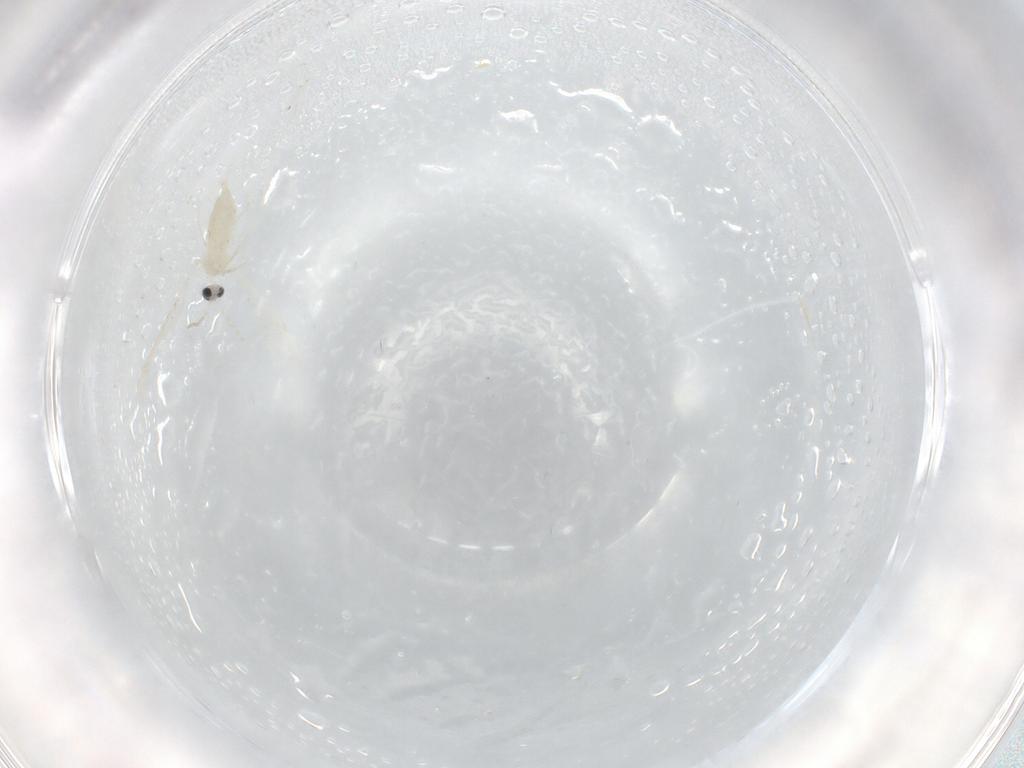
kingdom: Animalia
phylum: Arthropoda
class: Insecta
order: Diptera
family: Cecidomyiidae
